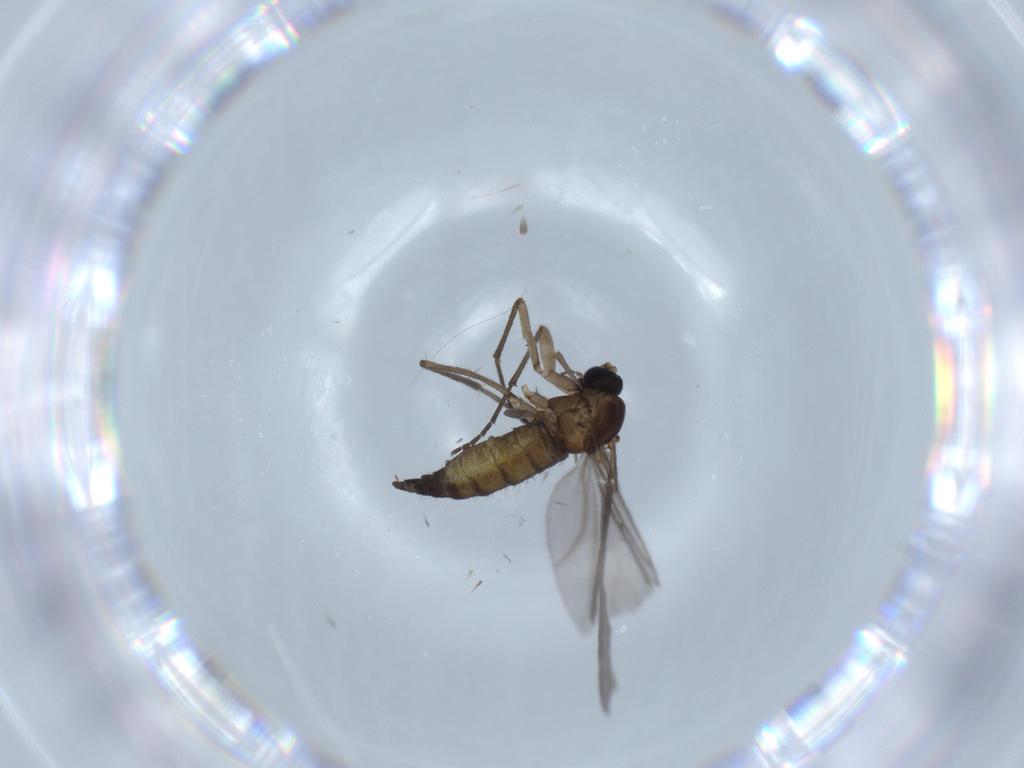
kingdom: Animalia
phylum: Arthropoda
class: Insecta
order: Diptera
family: Sciaridae
